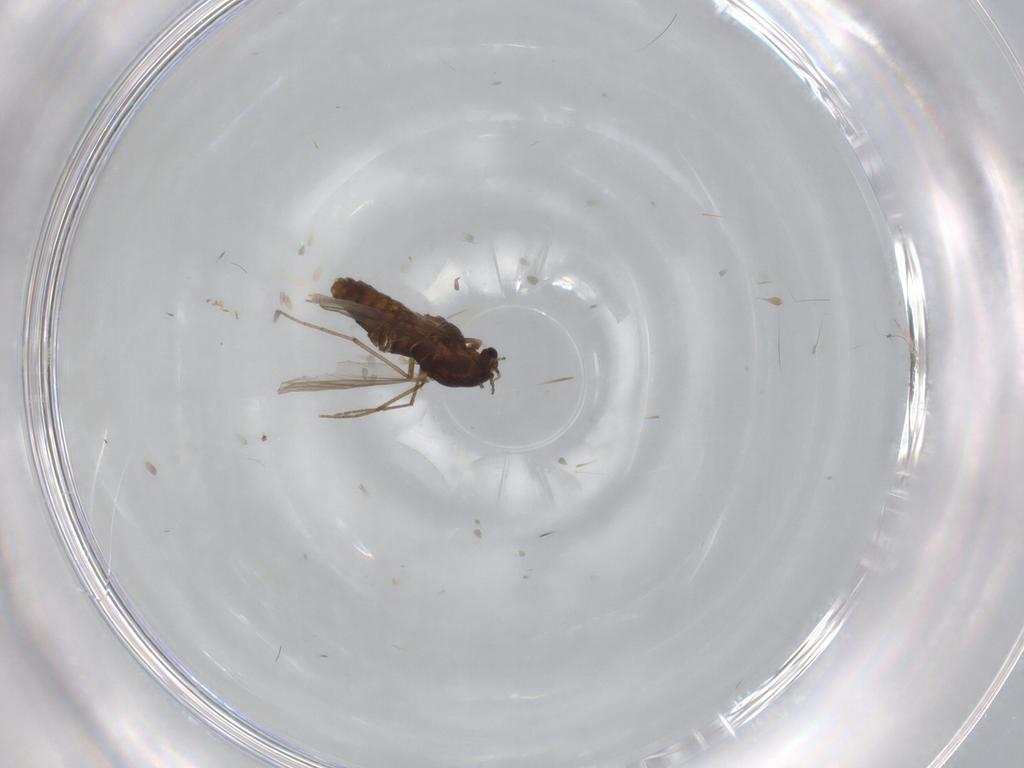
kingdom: Animalia
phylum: Arthropoda
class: Insecta
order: Diptera
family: Chironomidae
